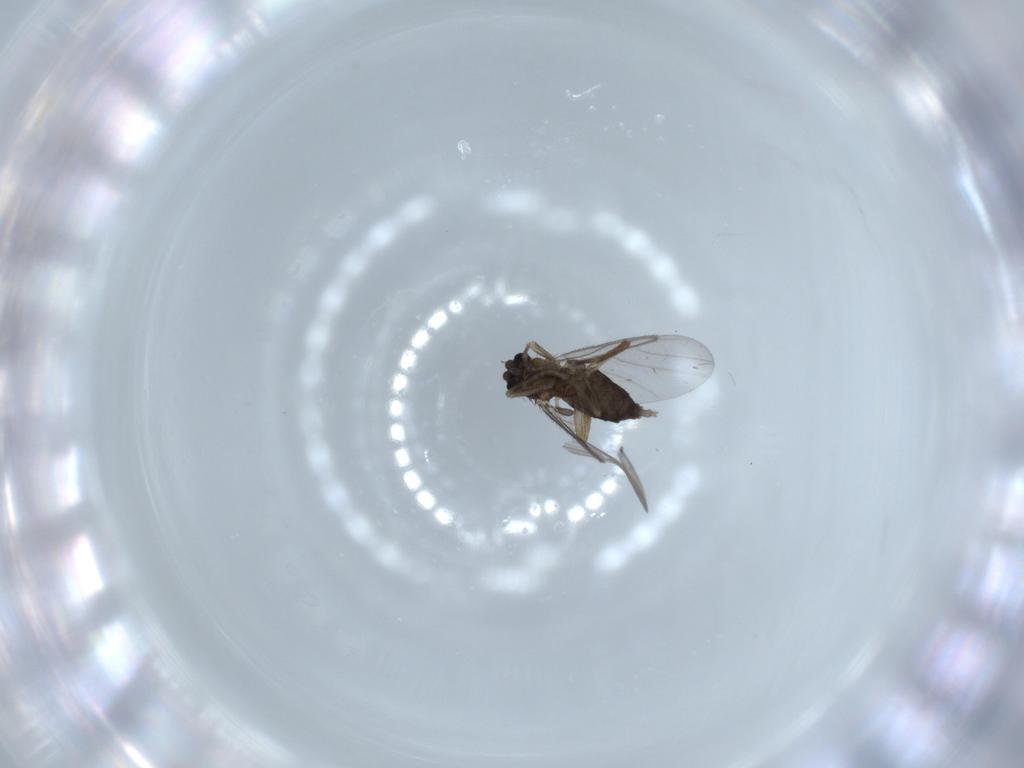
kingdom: Animalia
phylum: Arthropoda
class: Insecta
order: Diptera
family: Phoridae
